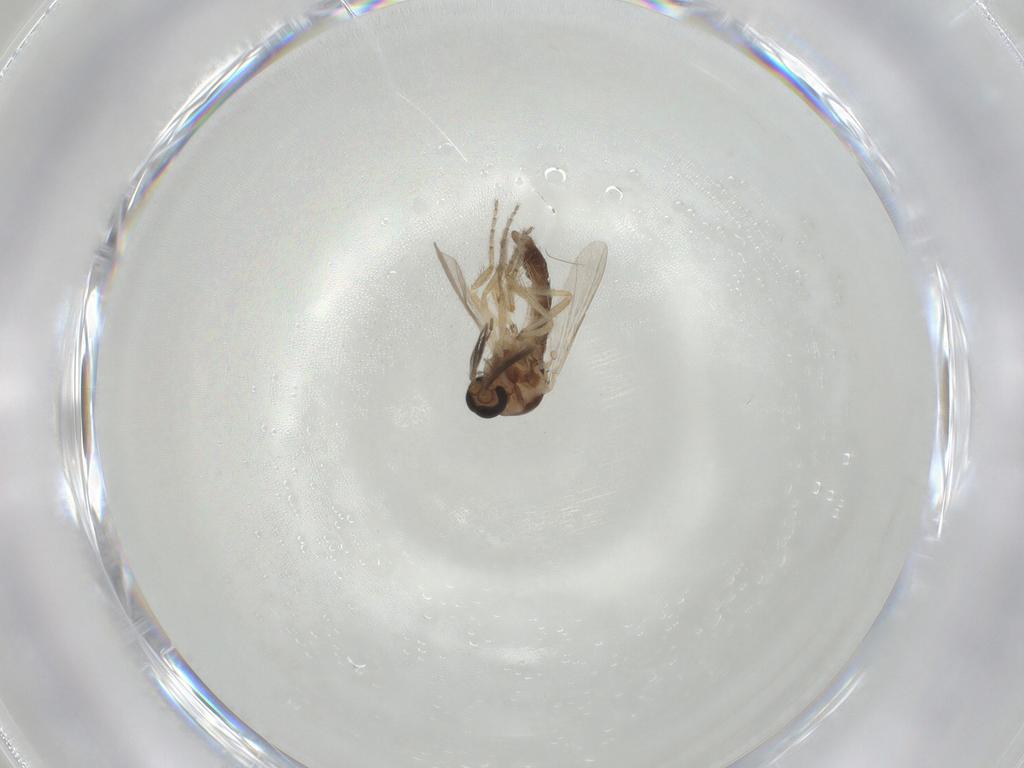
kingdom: Animalia
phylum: Arthropoda
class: Insecta
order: Diptera
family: Ceratopogonidae
